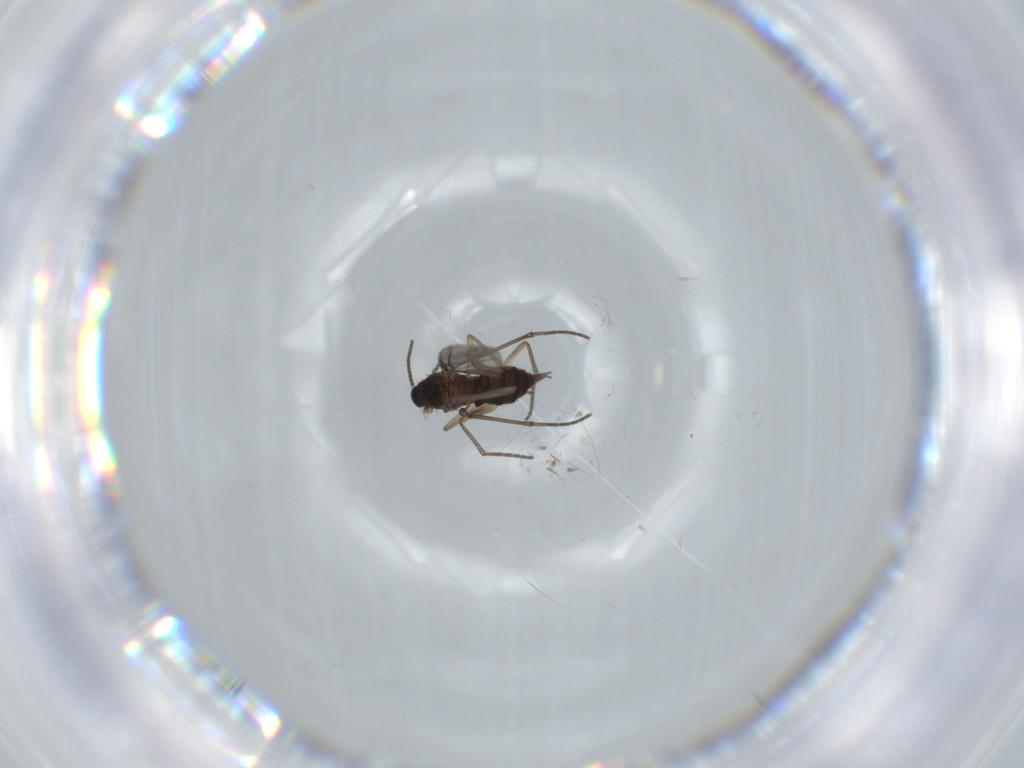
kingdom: Animalia
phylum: Arthropoda
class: Insecta
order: Diptera
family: Sciaridae
